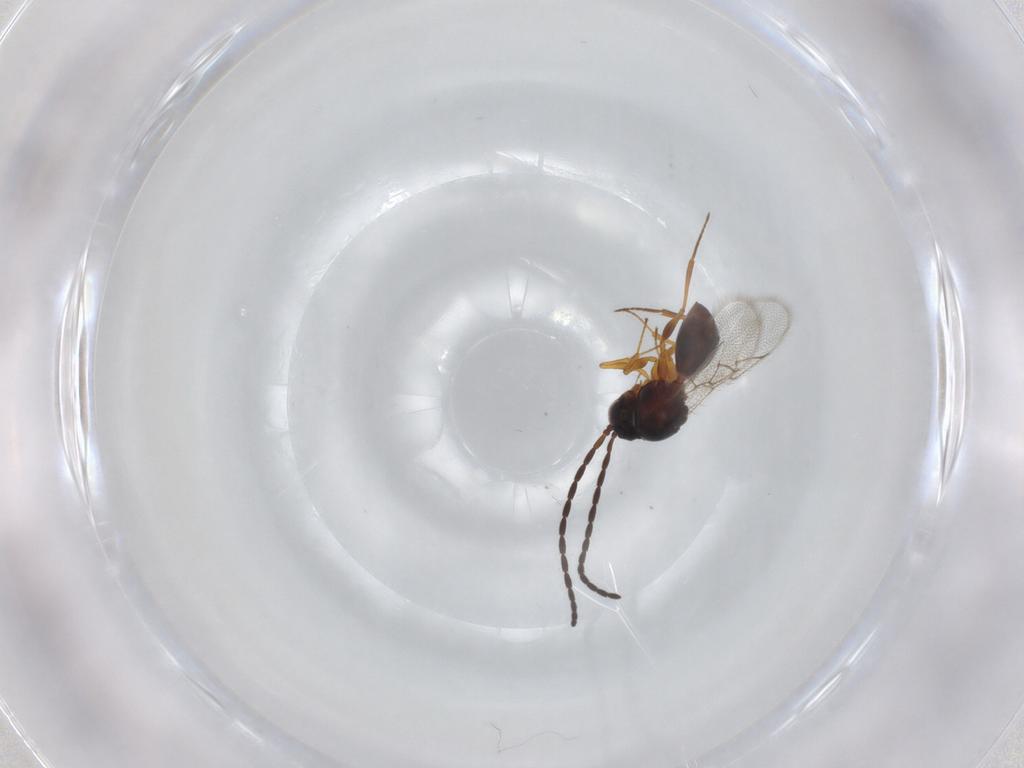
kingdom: Animalia
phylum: Arthropoda
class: Insecta
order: Hymenoptera
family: Figitidae
